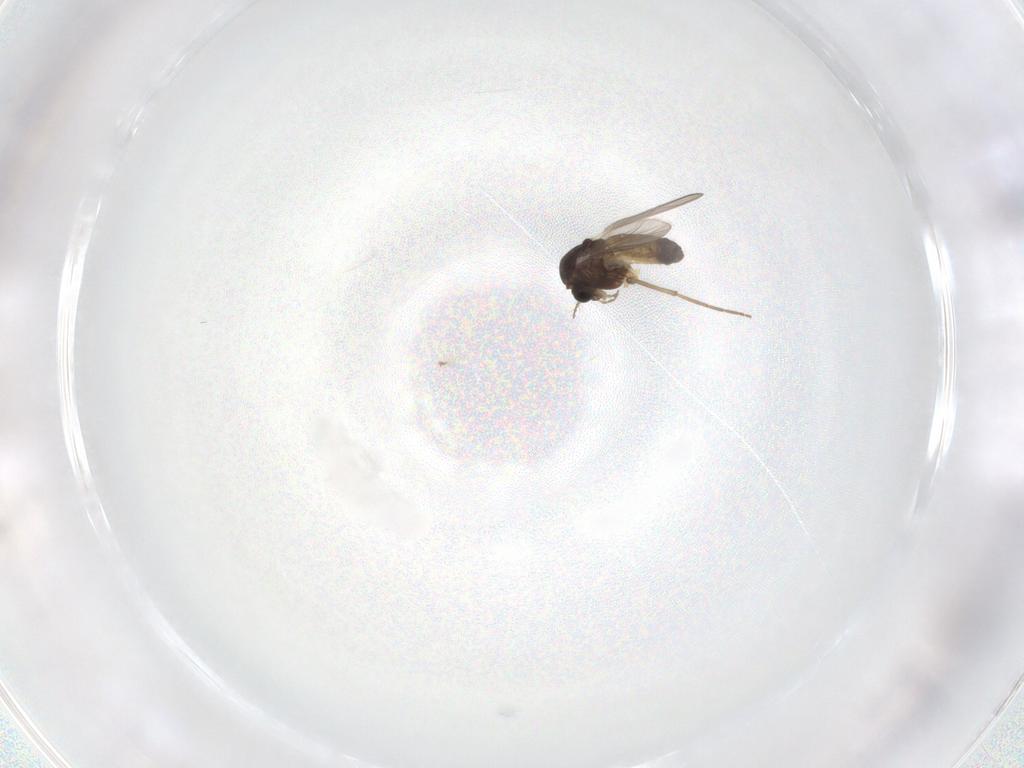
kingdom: Animalia
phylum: Arthropoda
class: Insecta
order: Diptera
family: Chironomidae
